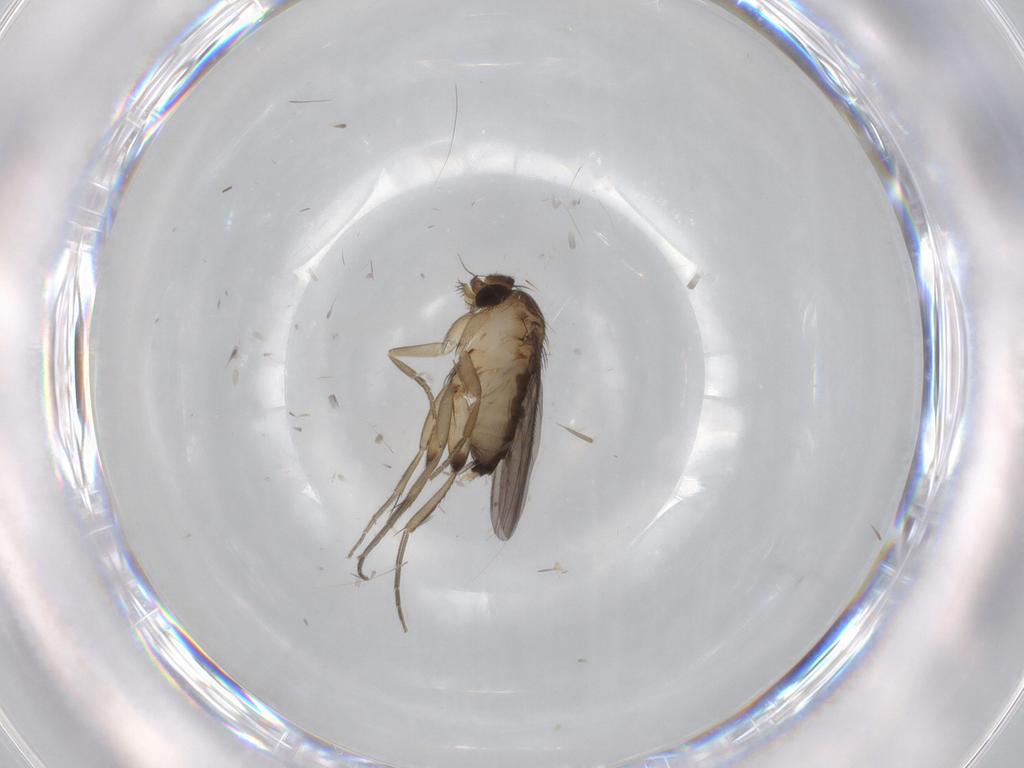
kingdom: Animalia
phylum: Arthropoda
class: Insecta
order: Diptera
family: Phoridae
